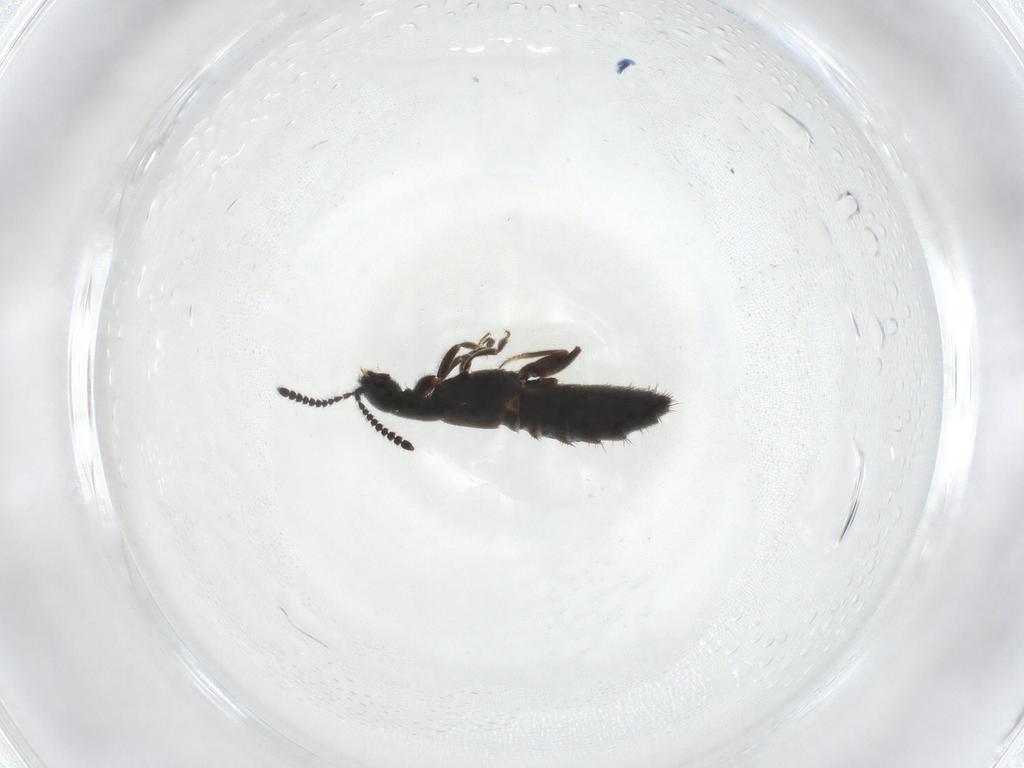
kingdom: Animalia
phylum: Arthropoda
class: Insecta
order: Coleoptera
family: Staphylinidae
